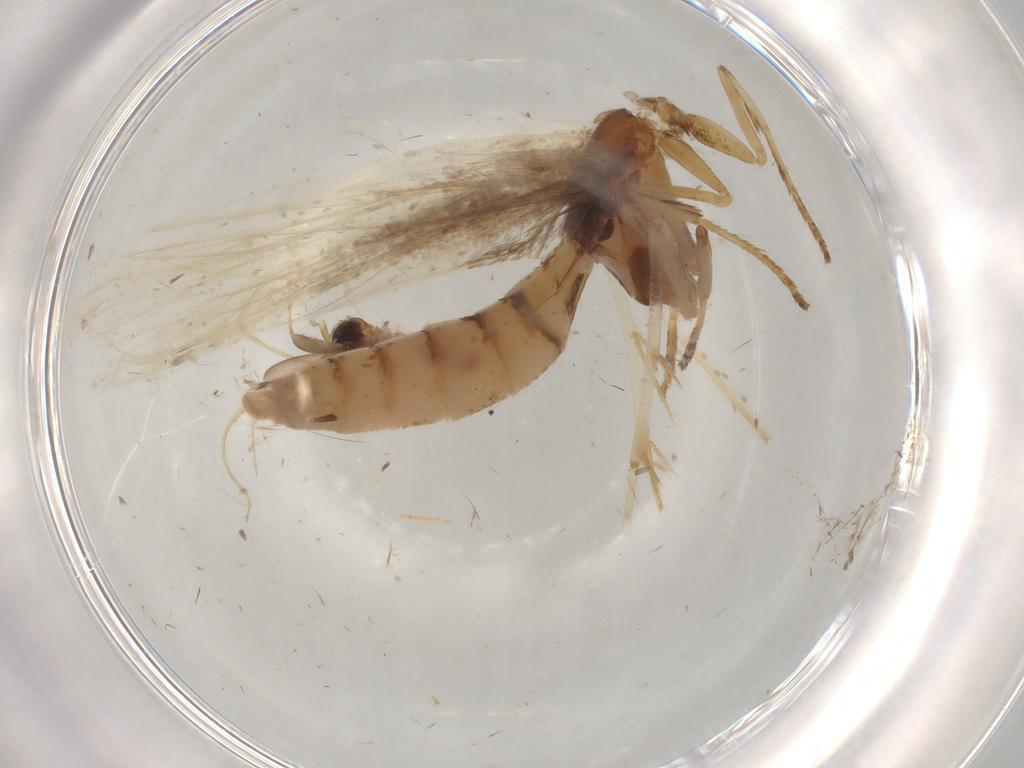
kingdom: Animalia
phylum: Arthropoda
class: Insecta
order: Lepidoptera
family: Gelechiidae
